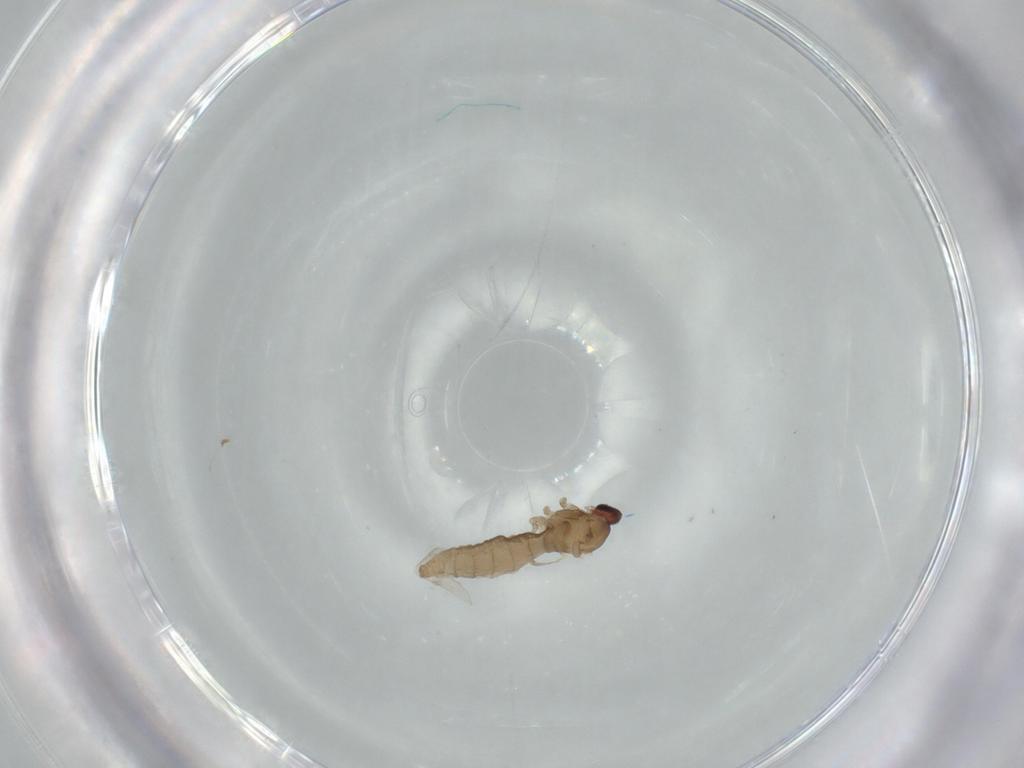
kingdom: Animalia
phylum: Arthropoda
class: Insecta
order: Diptera
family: Cecidomyiidae
